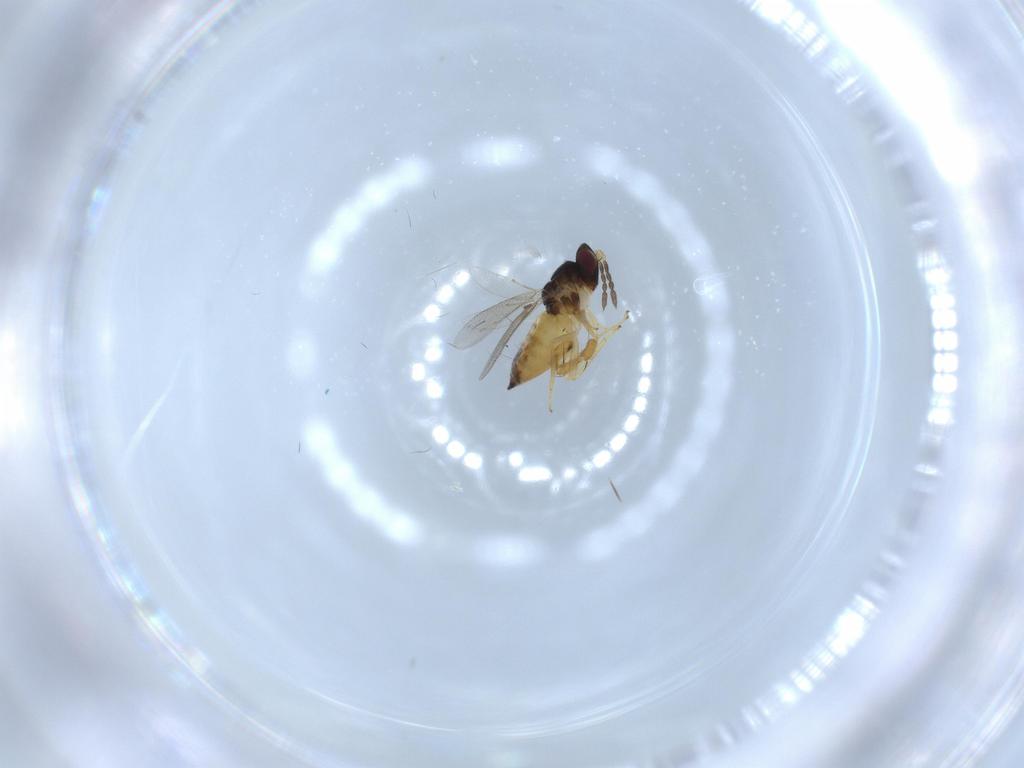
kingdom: Animalia
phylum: Arthropoda
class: Insecta
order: Hymenoptera
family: Eulophidae
